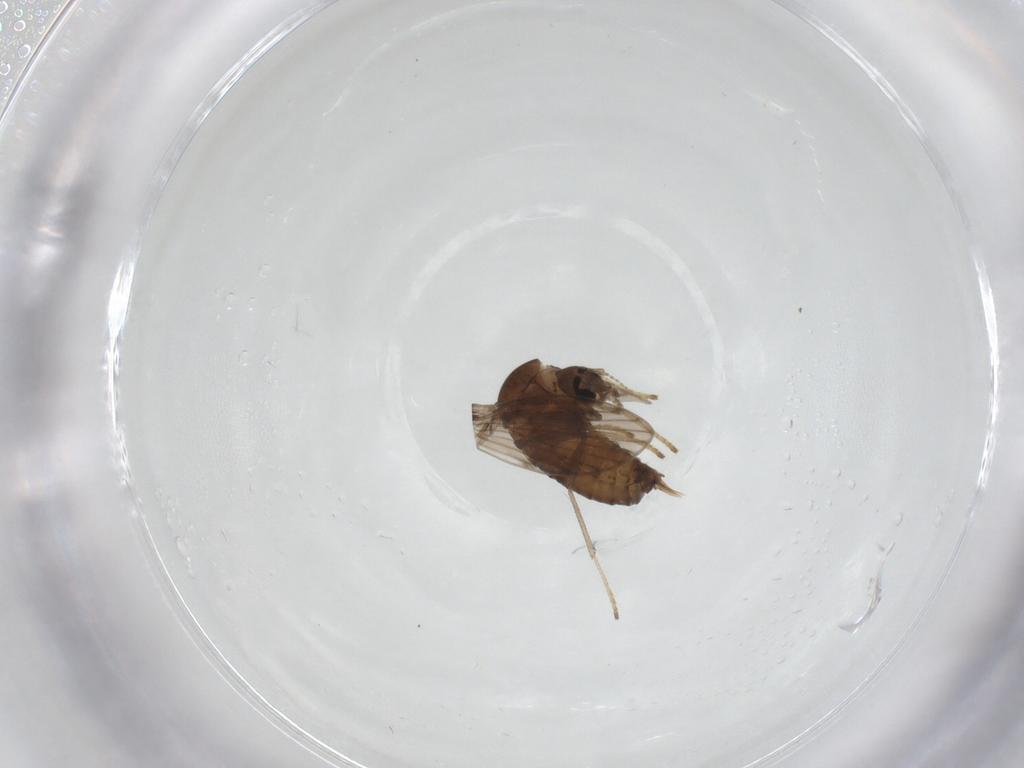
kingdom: Animalia
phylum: Arthropoda
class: Insecta
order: Diptera
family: Psychodidae
